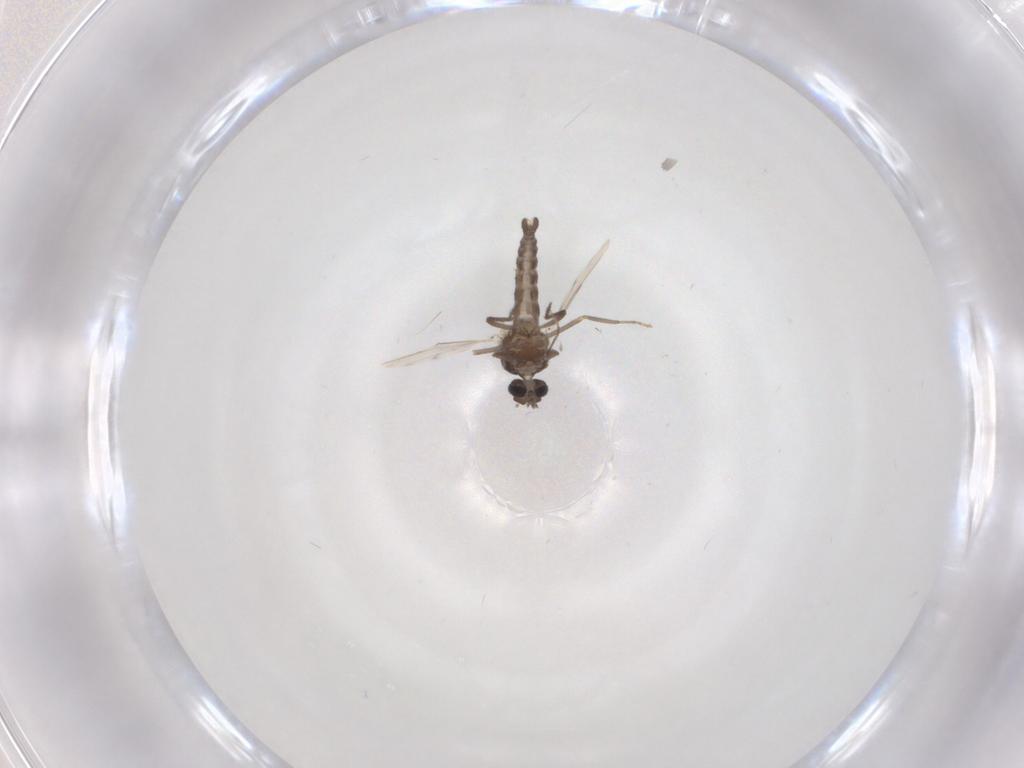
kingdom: Animalia
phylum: Arthropoda
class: Insecta
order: Diptera
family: Ceratopogonidae
